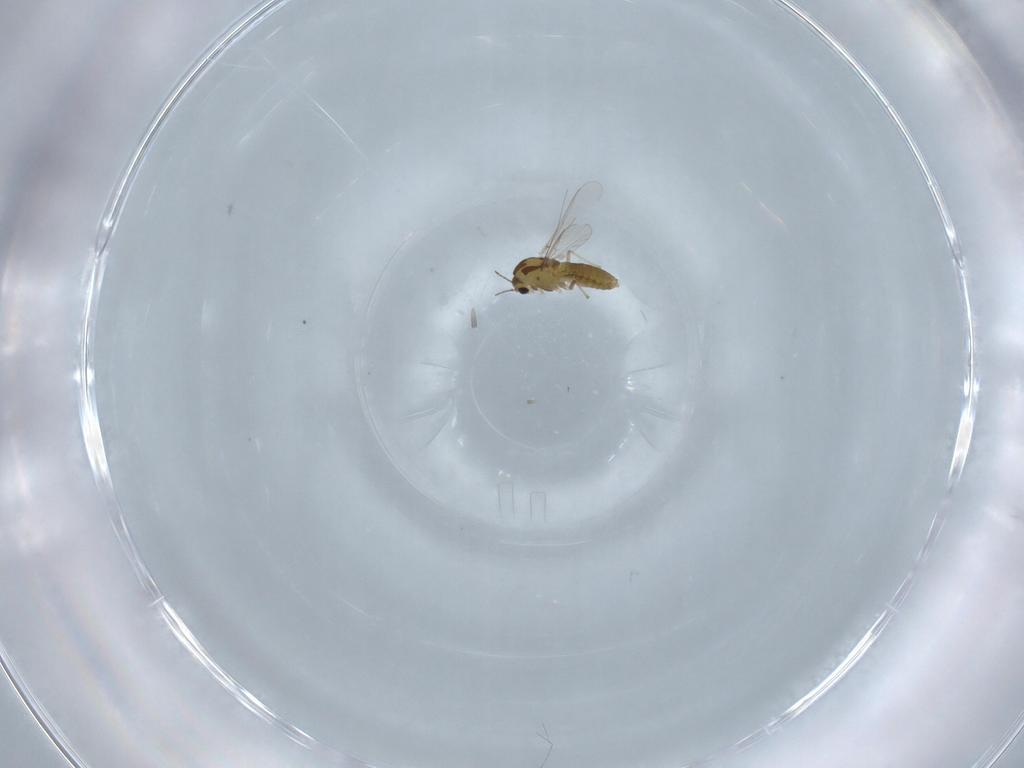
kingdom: Animalia
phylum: Arthropoda
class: Insecta
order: Diptera
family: Chironomidae
